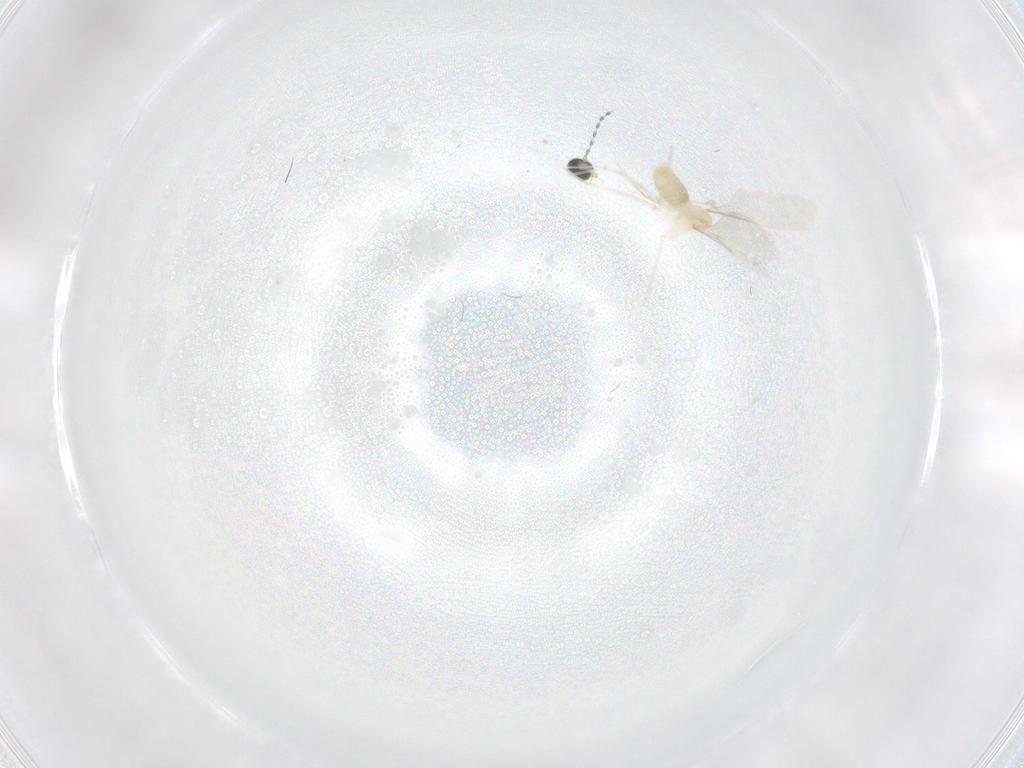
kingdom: Animalia
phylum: Arthropoda
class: Insecta
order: Diptera
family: Cecidomyiidae
